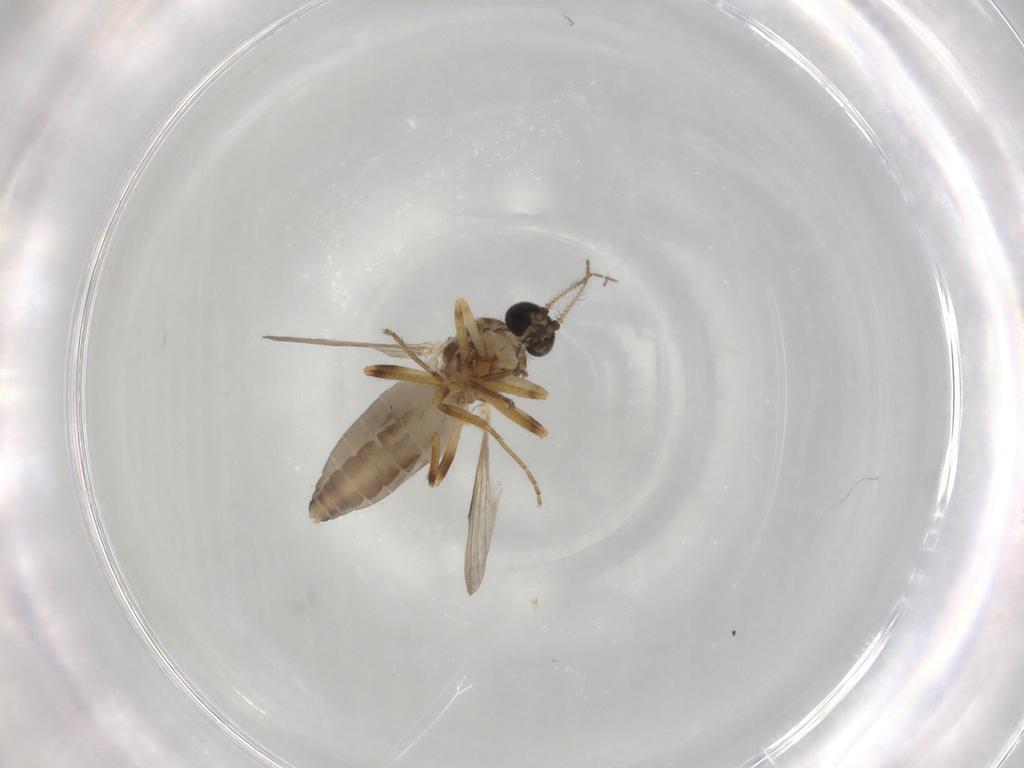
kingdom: Animalia
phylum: Arthropoda
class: Insecta
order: Diptera
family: Ceratopogonidae
